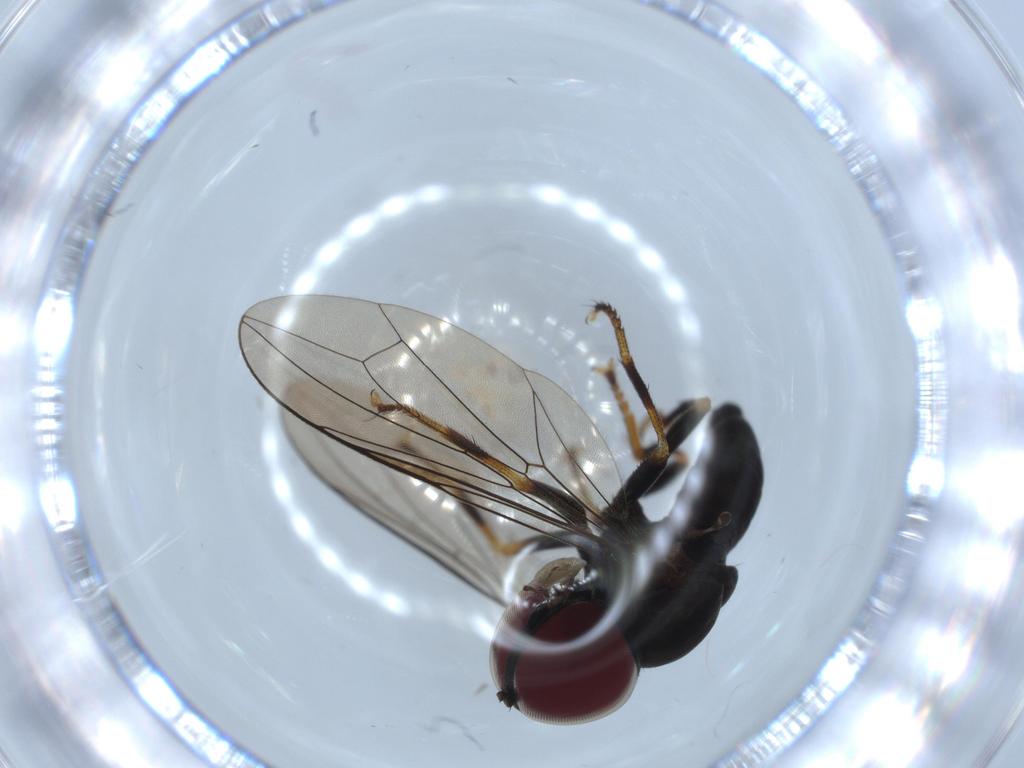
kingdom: Animalia
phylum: Arthropoda
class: Insecta
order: Diptera
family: Pipunculidae
